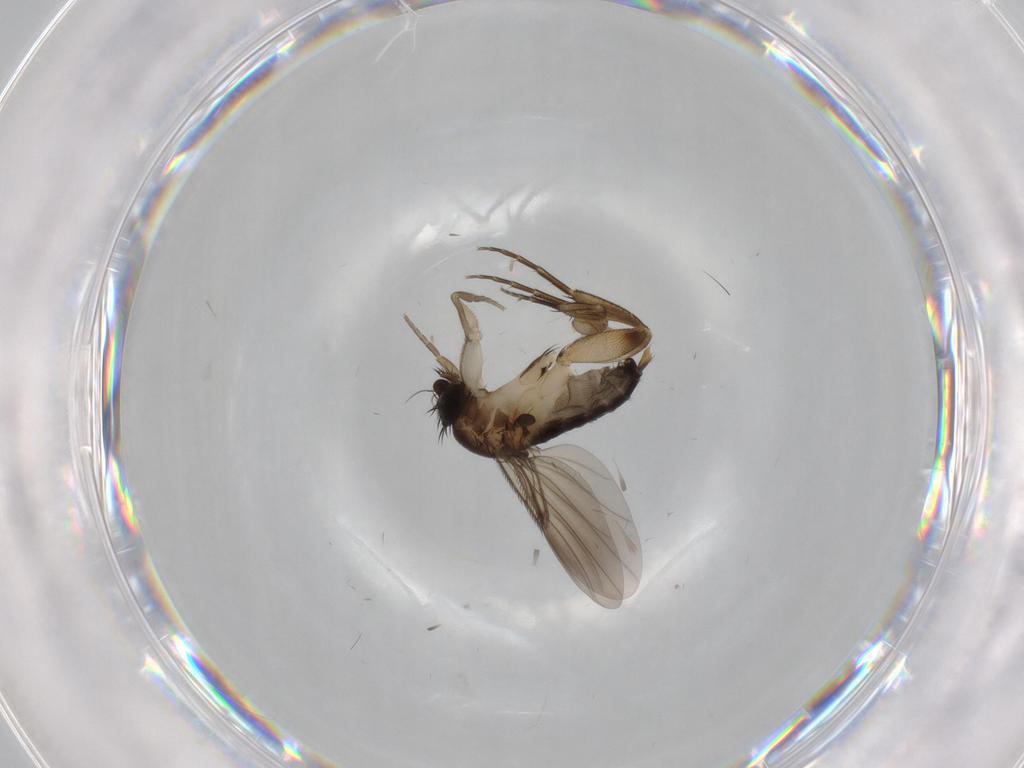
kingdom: Animalia
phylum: Arthropoda
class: Insecta
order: Diptera
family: Phoridae
